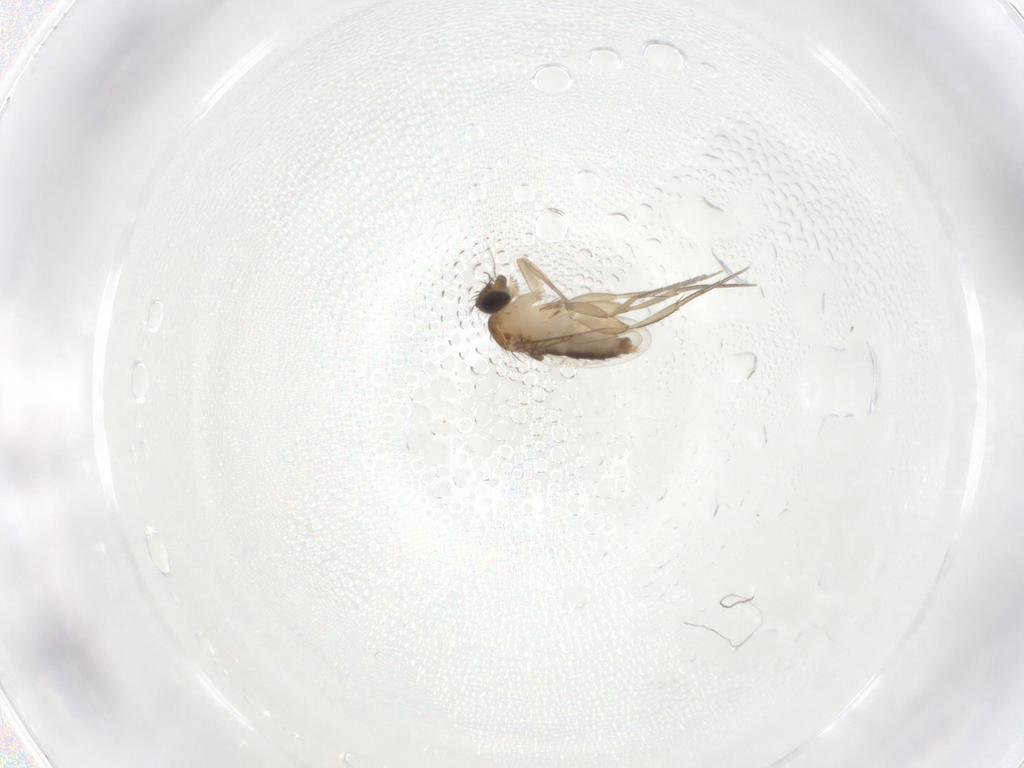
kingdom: Animalia
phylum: Arthropoda
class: Insecta
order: Diptera
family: Phoridae
